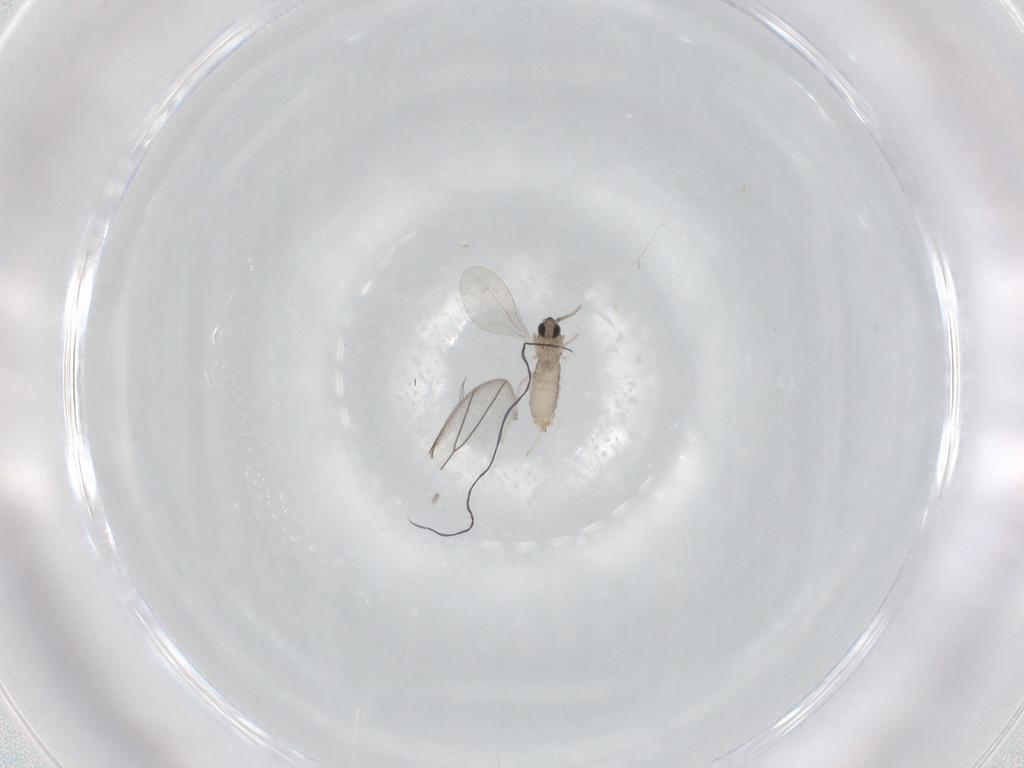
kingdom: Animalia
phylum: Arthropoda
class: Insecta
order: Diptera
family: Cecidomyiidae
